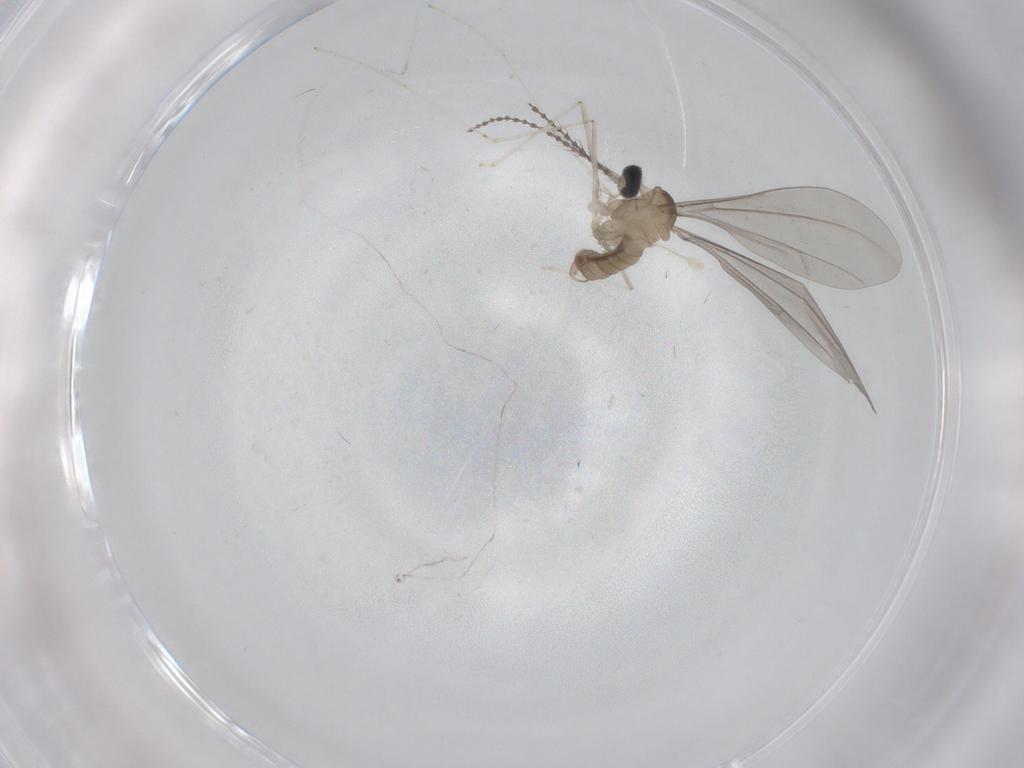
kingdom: Animalia
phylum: Arthropoda
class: Insecta
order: Diptera
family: Cecidomyiidae
